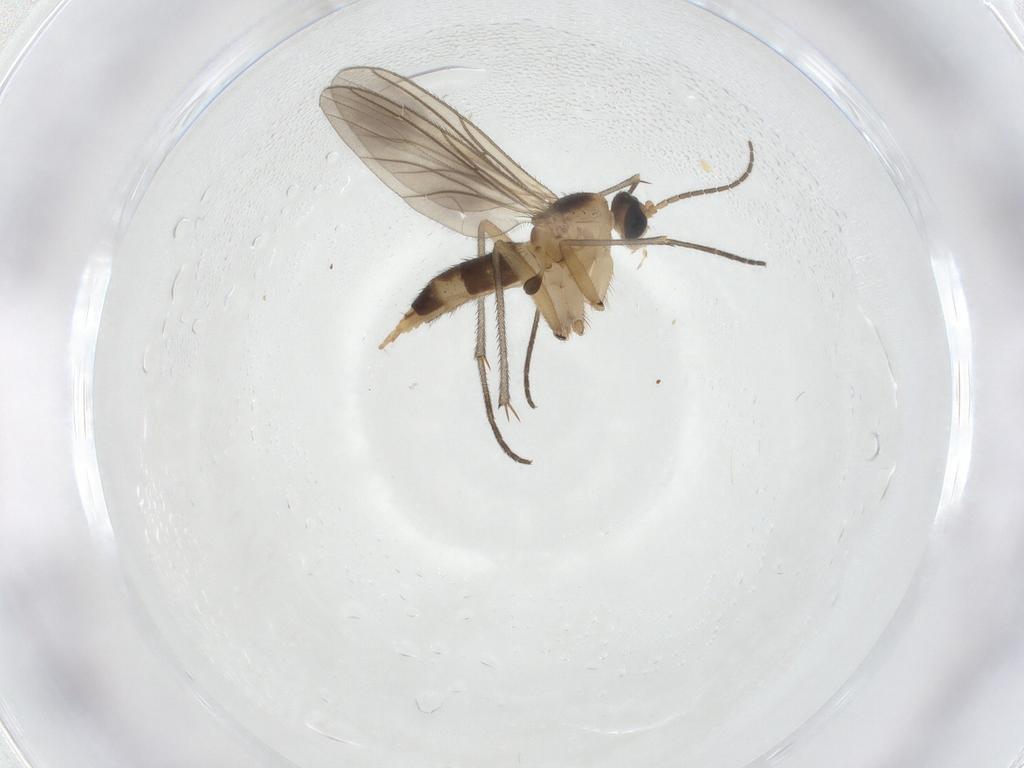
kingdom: Animalia
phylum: Arthropoda
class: Insecta
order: Diptera
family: Sciaridae
